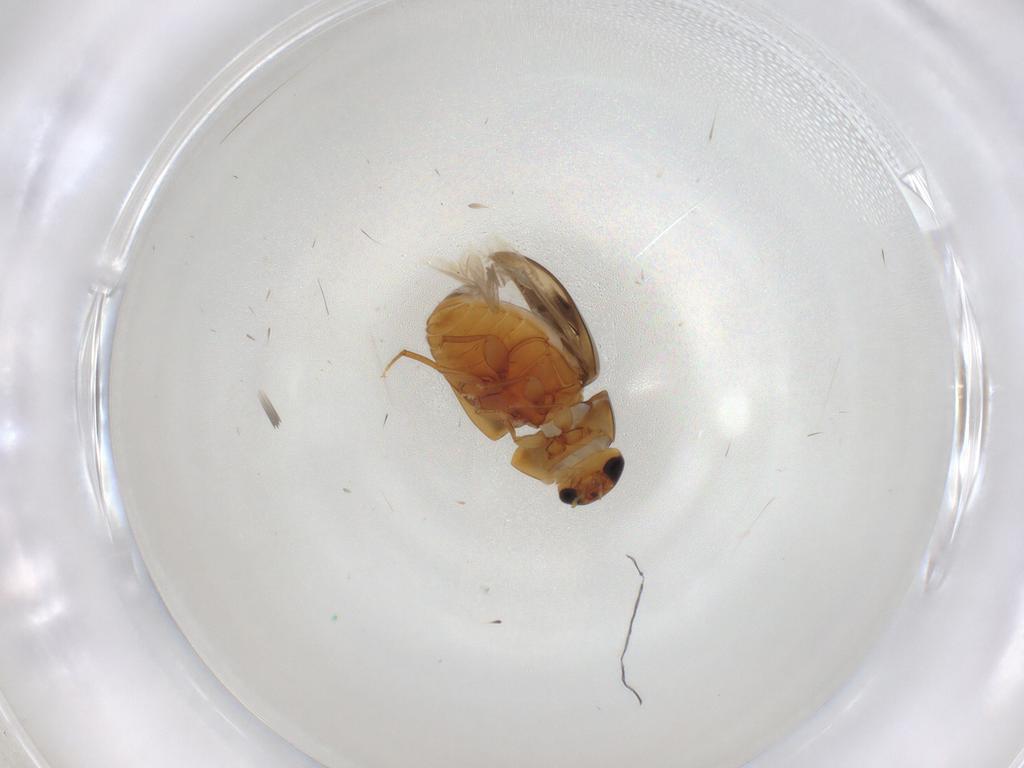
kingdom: Animalia
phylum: Arthropoda
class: Insecta
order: Coleoptera
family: Phalacridae
